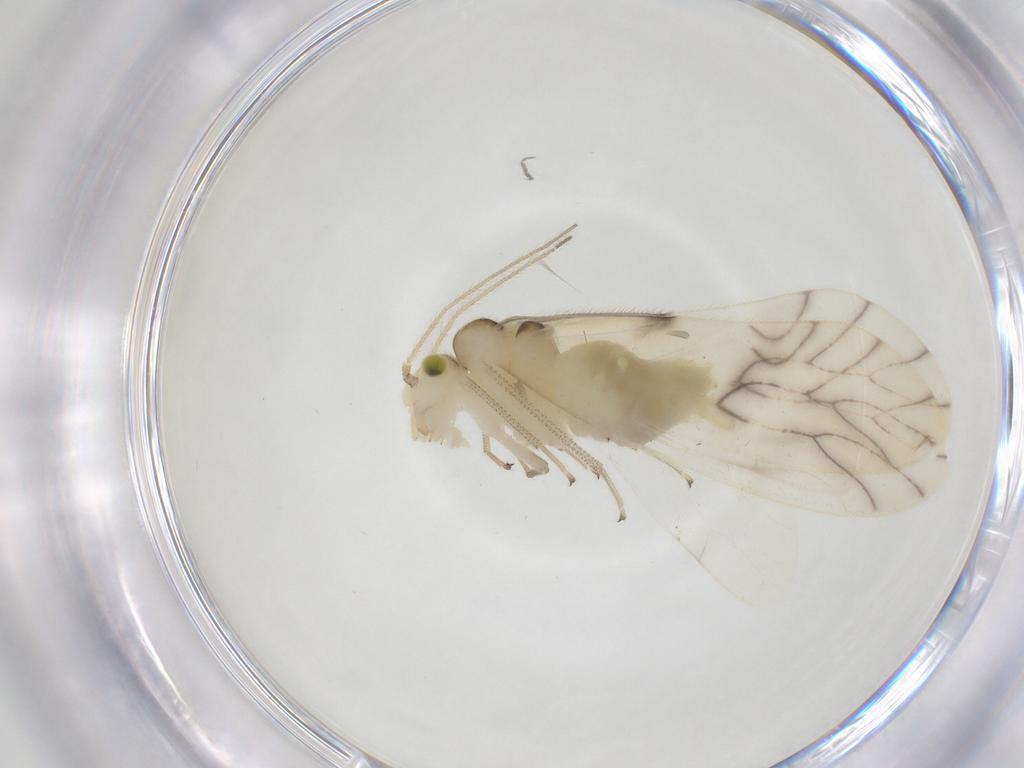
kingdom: Animalia
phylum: Arthropoda
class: Insecta
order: Psocodea
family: Caeciliusidae
